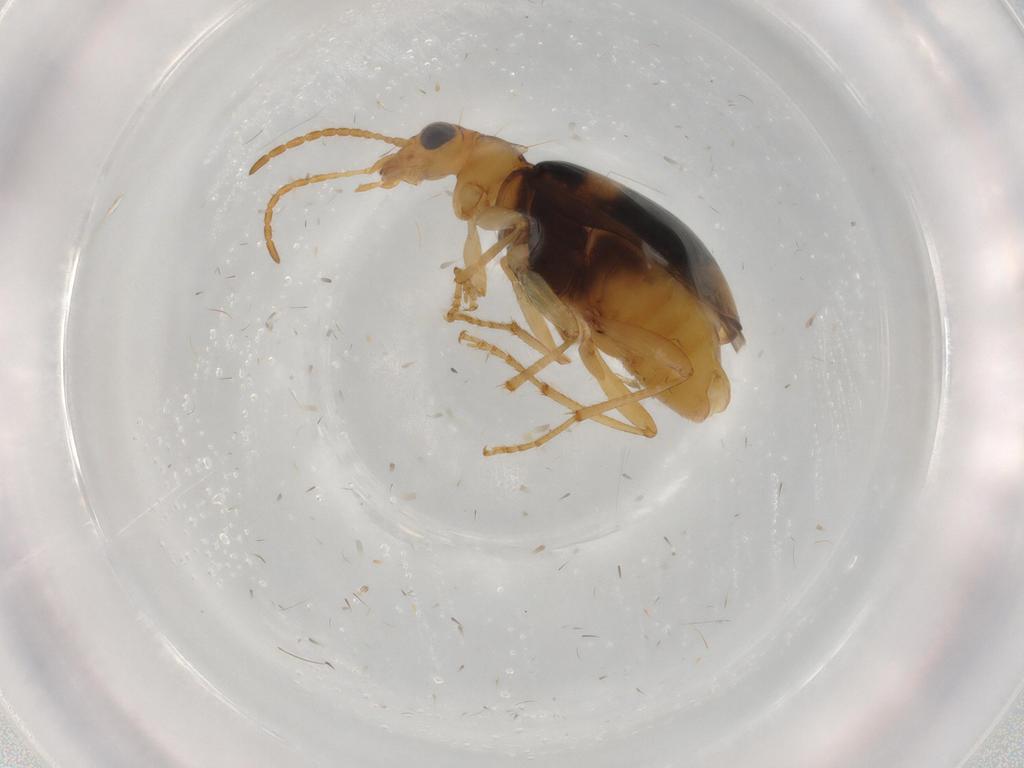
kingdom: Animalia
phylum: Arthropoda
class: Insecta
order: Coleoptera
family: Carabidae
